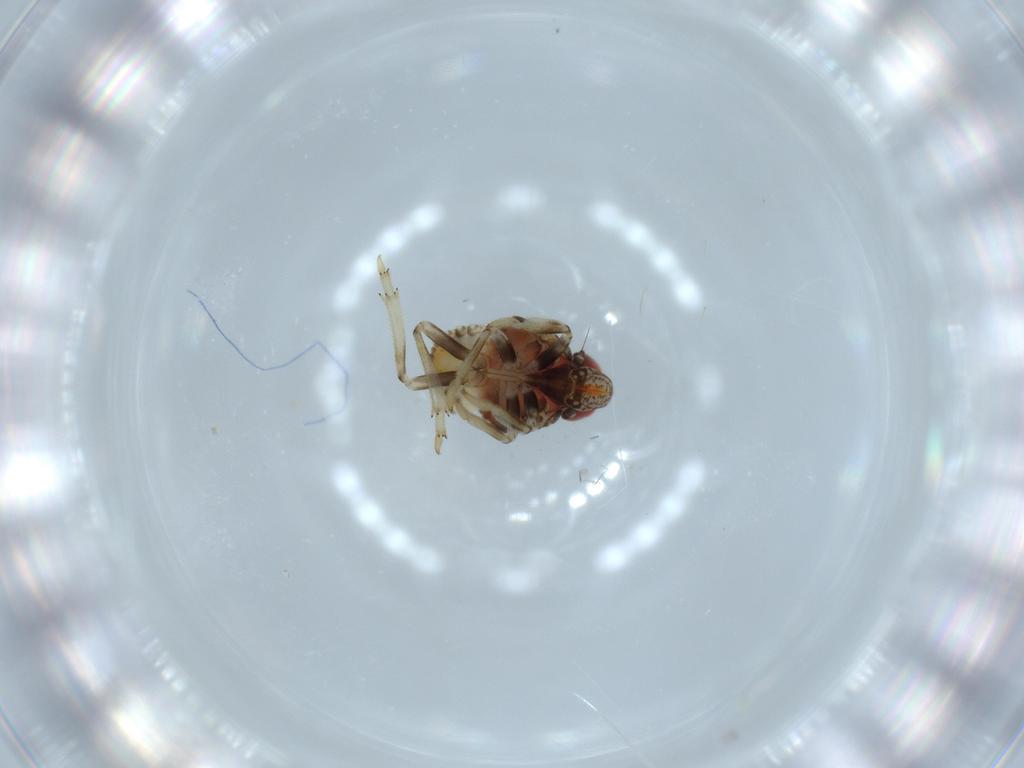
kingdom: Animalia
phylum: Arthropoda
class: Insecta
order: Hemiptera
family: Issidae
